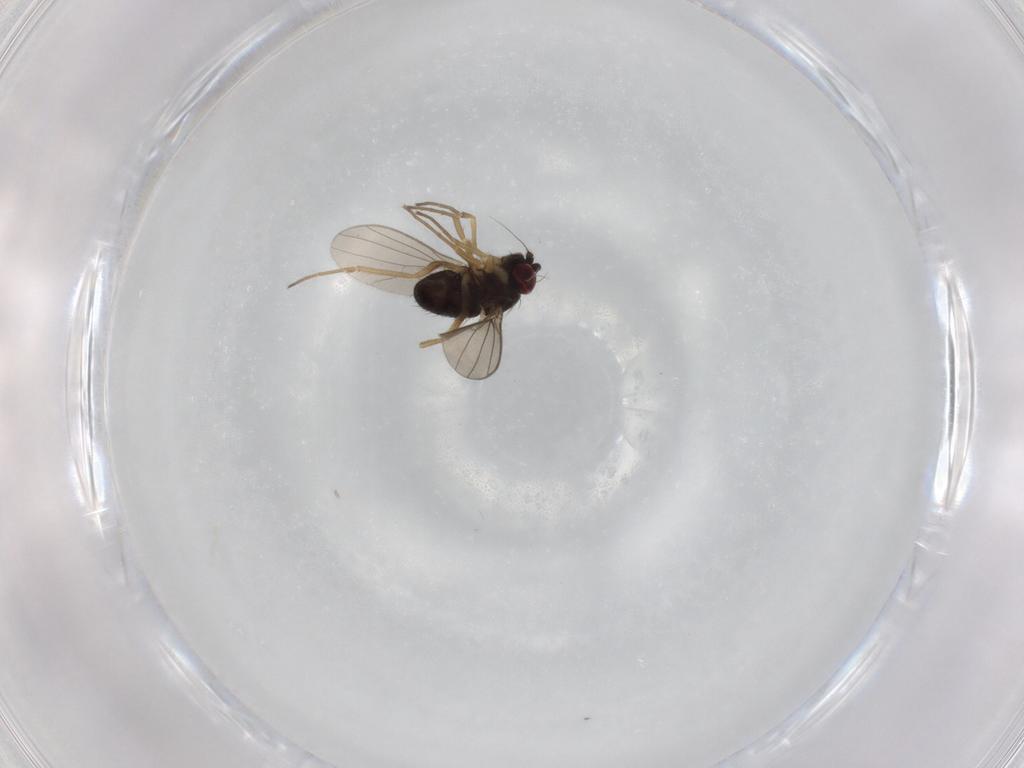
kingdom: Animalia
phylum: Arthropoda
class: Insecta
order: Diptera
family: Dolichopodidae
